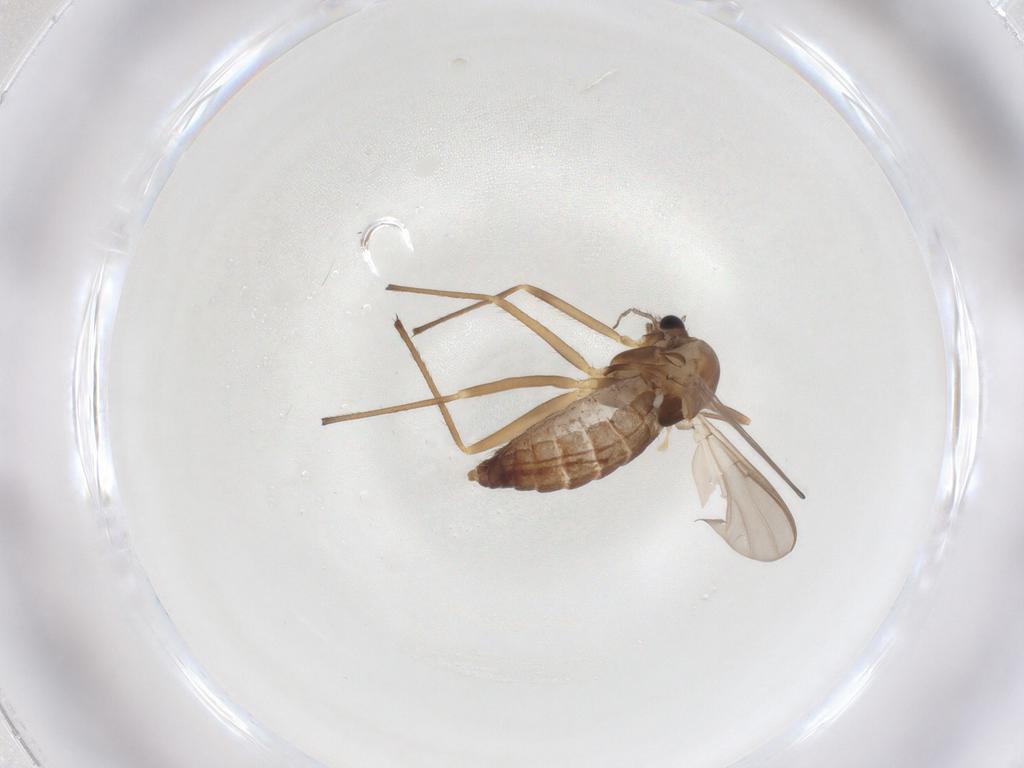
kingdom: Animalia
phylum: Arthropoda
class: Insecta
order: Diptera
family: Chironomidae
